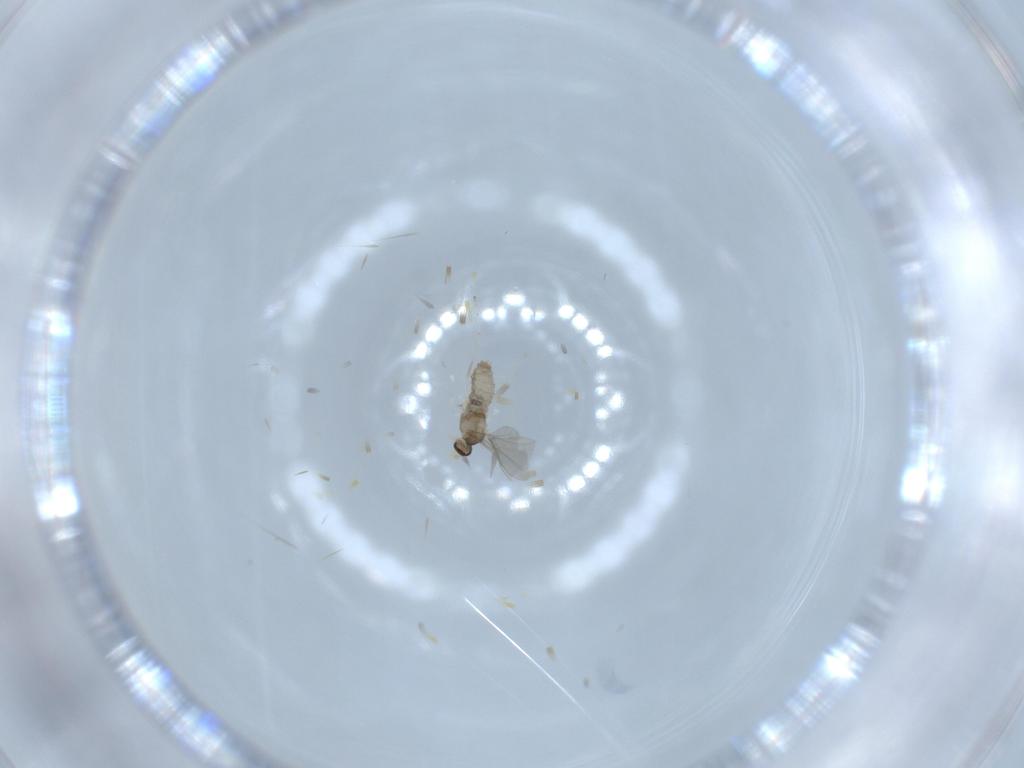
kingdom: Animalia
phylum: Arthropoda
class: Insecta
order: Diptera
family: Cecidomyiidae
